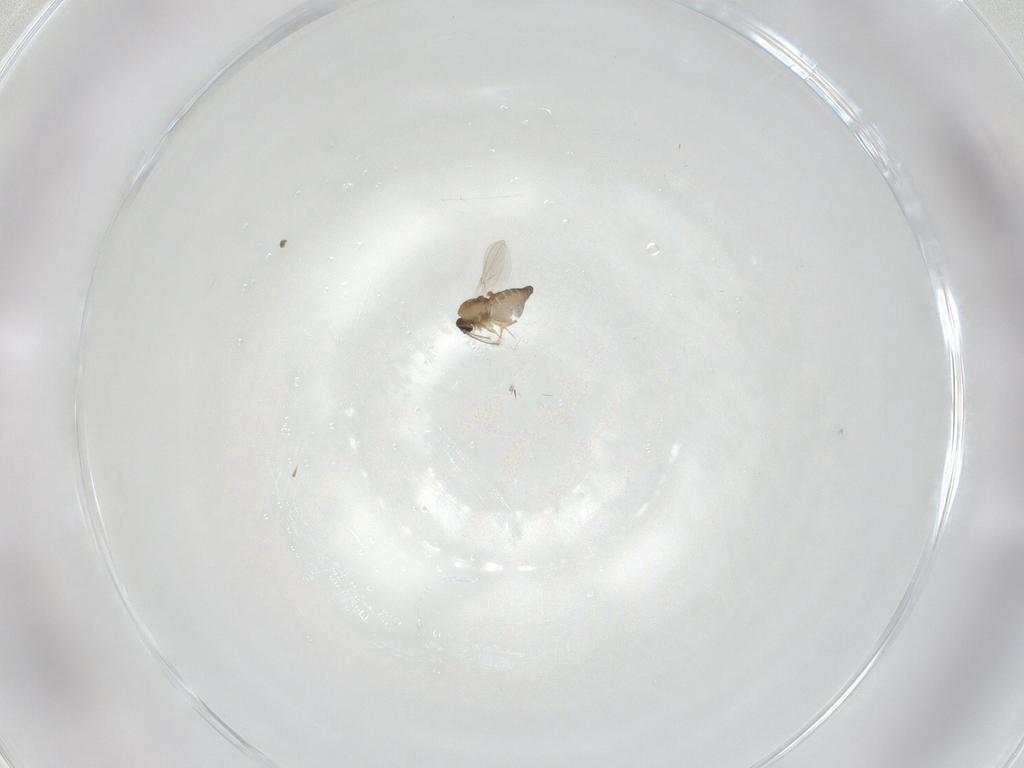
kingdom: Animalia
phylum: Arthropoda
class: Insecta
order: Diptera
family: Ceratopogonidae
